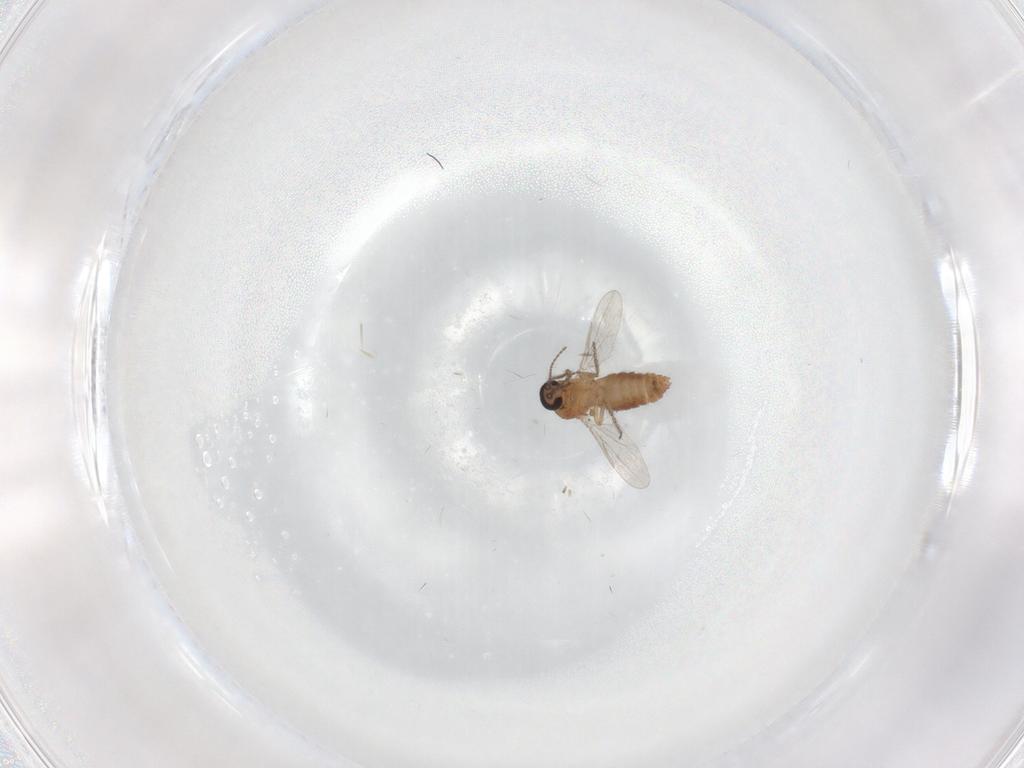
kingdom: Animalia
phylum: Arthropoda
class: Insecta
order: Diptera
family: Ceratopogonidae
